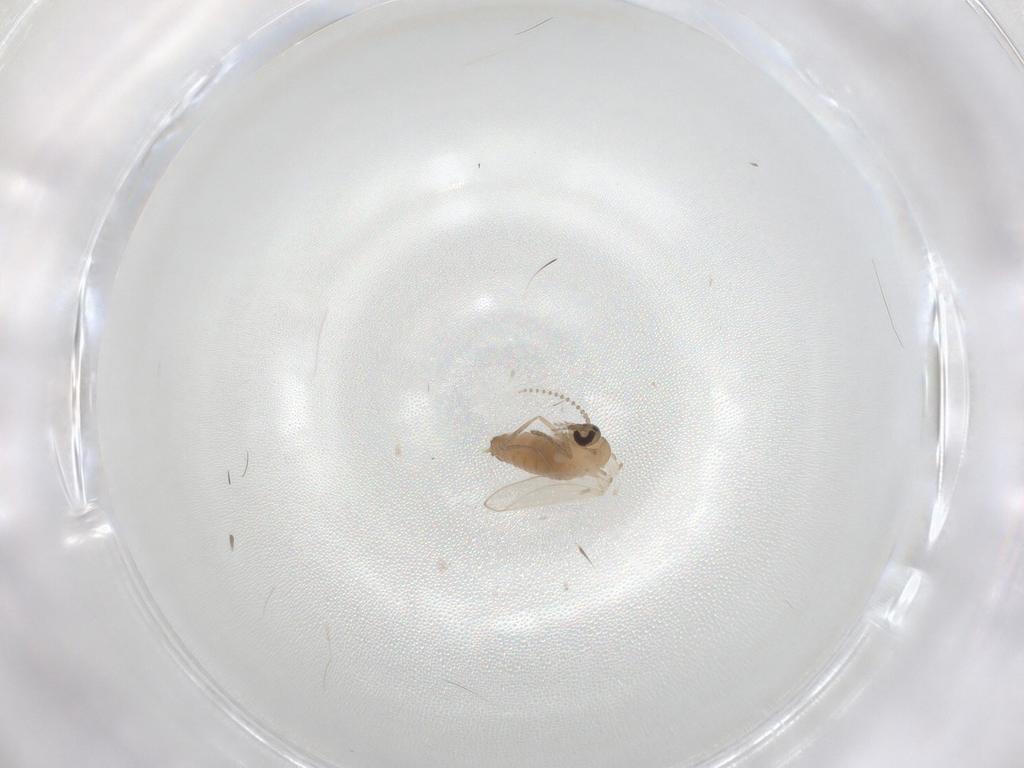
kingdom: Animalia
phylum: Arthropoda
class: Insecta
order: Diptera
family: Psychodidae
